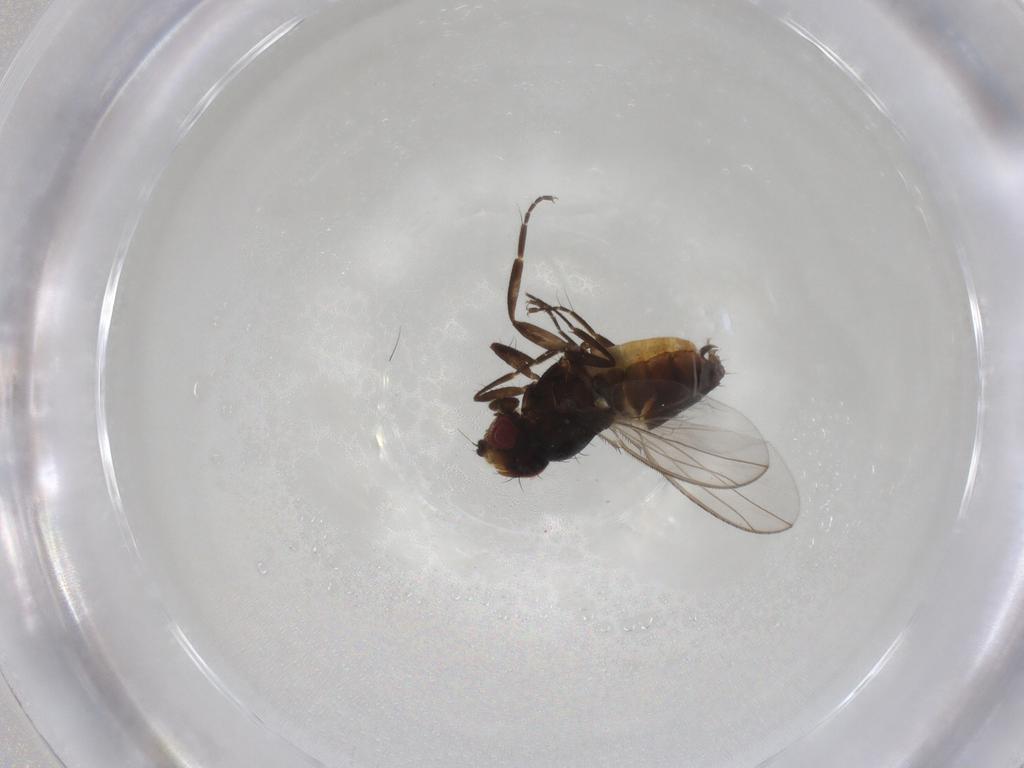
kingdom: Animalia
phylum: Arthropoda
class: Insecta
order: Diptera
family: Carnidae
